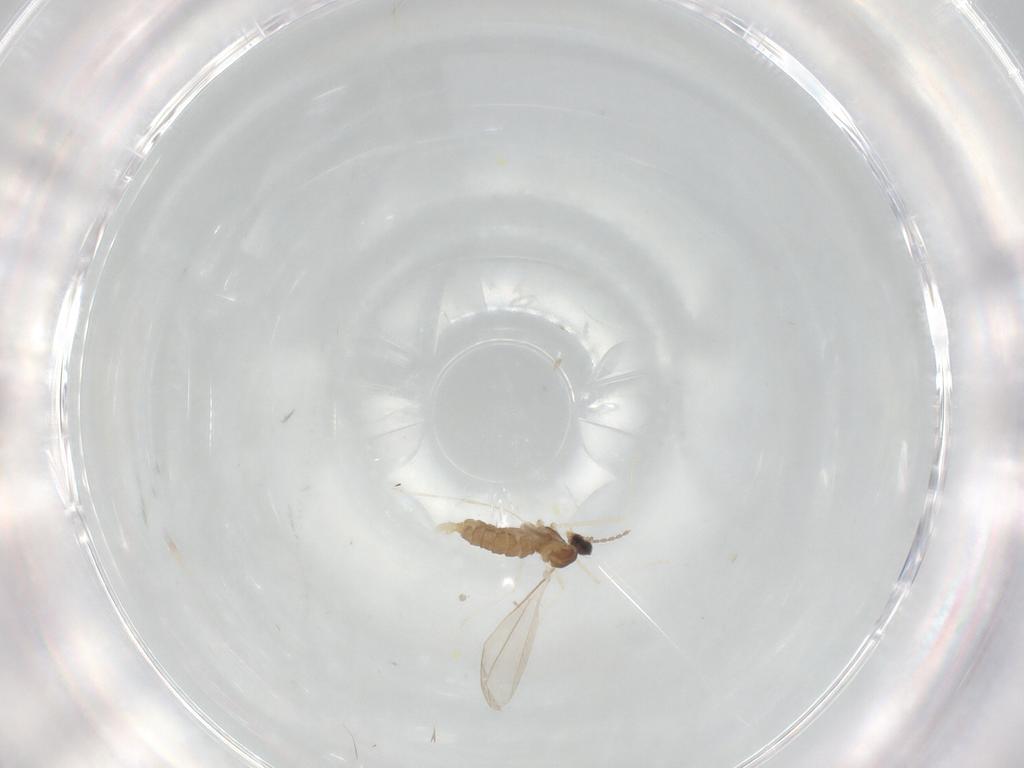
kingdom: Animalia
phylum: Arthropoda
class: Insecta
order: Diptera
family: Cecidomyiidae
